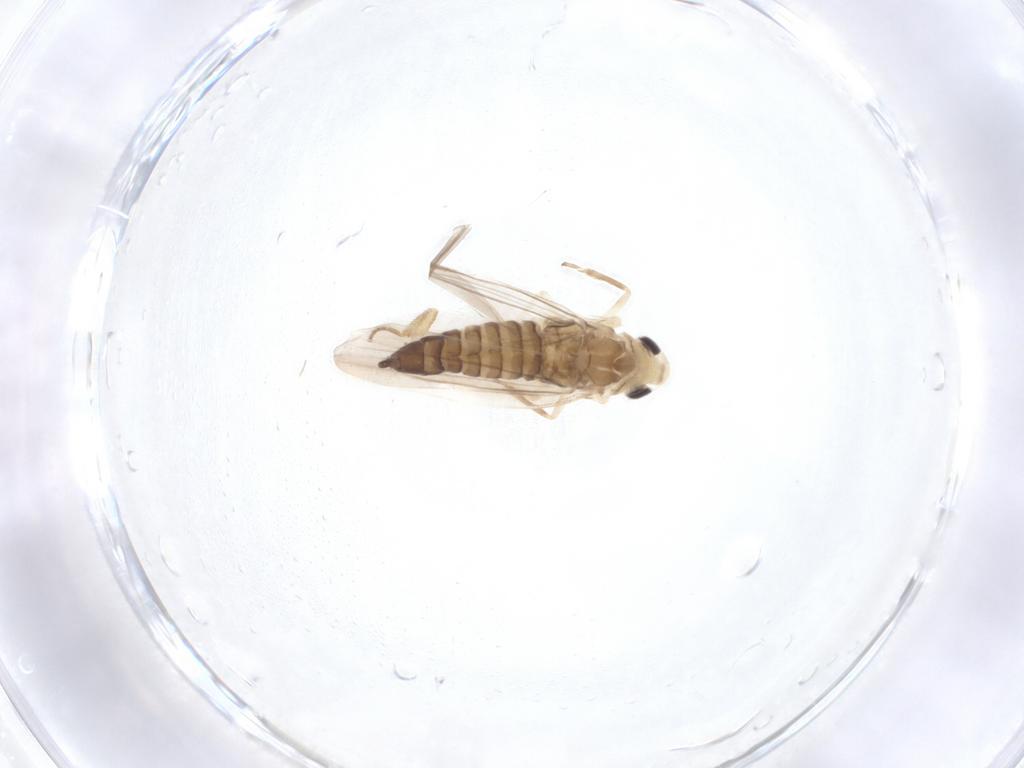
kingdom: Animalia
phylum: Arthropoda
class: Insecta
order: Hemiptera
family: Cicadellidae
